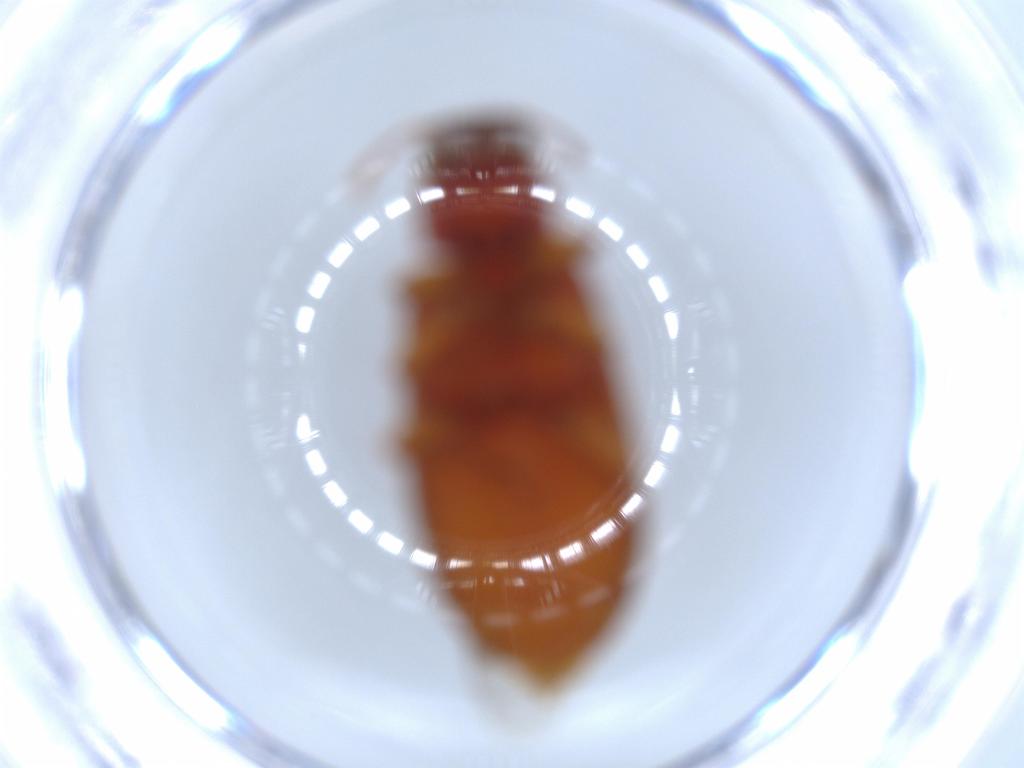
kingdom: Animalia
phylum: Arthropoda
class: Insecta
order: Coleoptera
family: Mycteridae
